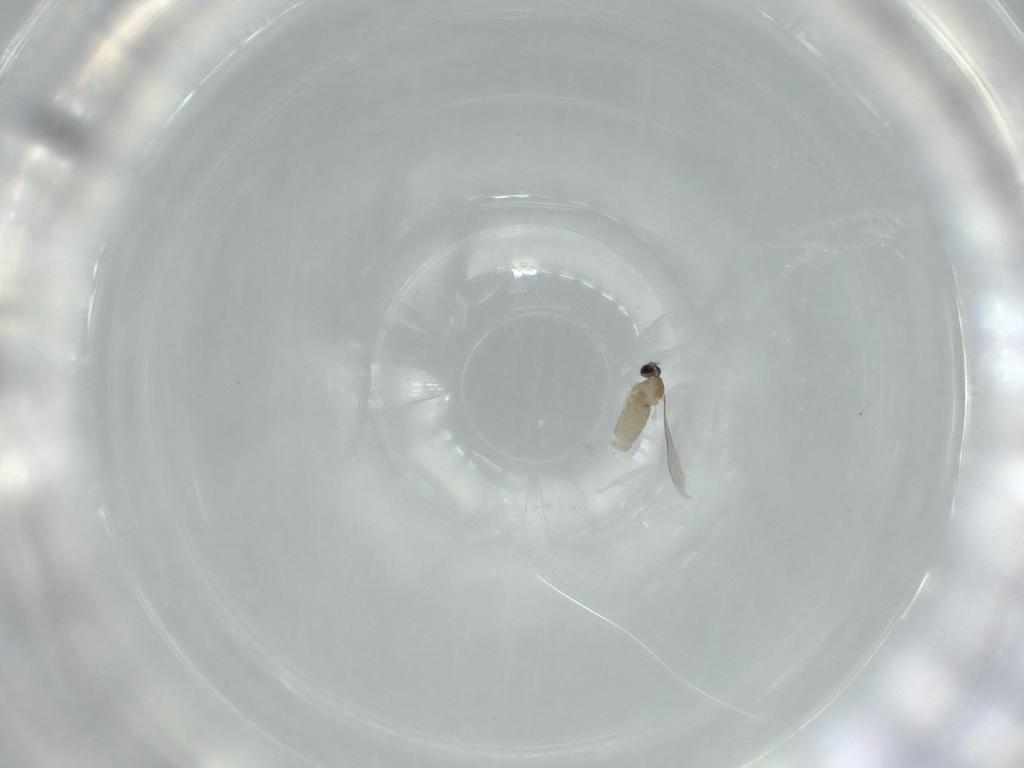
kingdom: Animalia
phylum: Arthropoda
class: Insecta
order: Diptera
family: Cecidomyiidae
